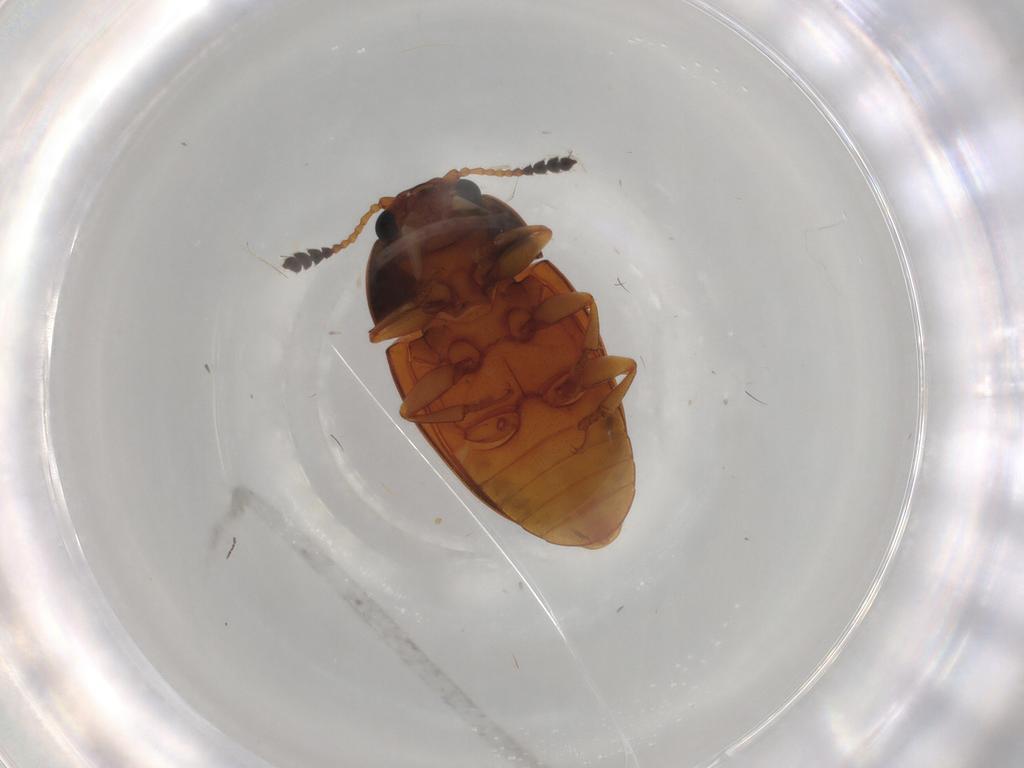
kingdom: Animalia
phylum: Arthropoda
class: Insecta
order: Coleoptera
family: Erotylidae
